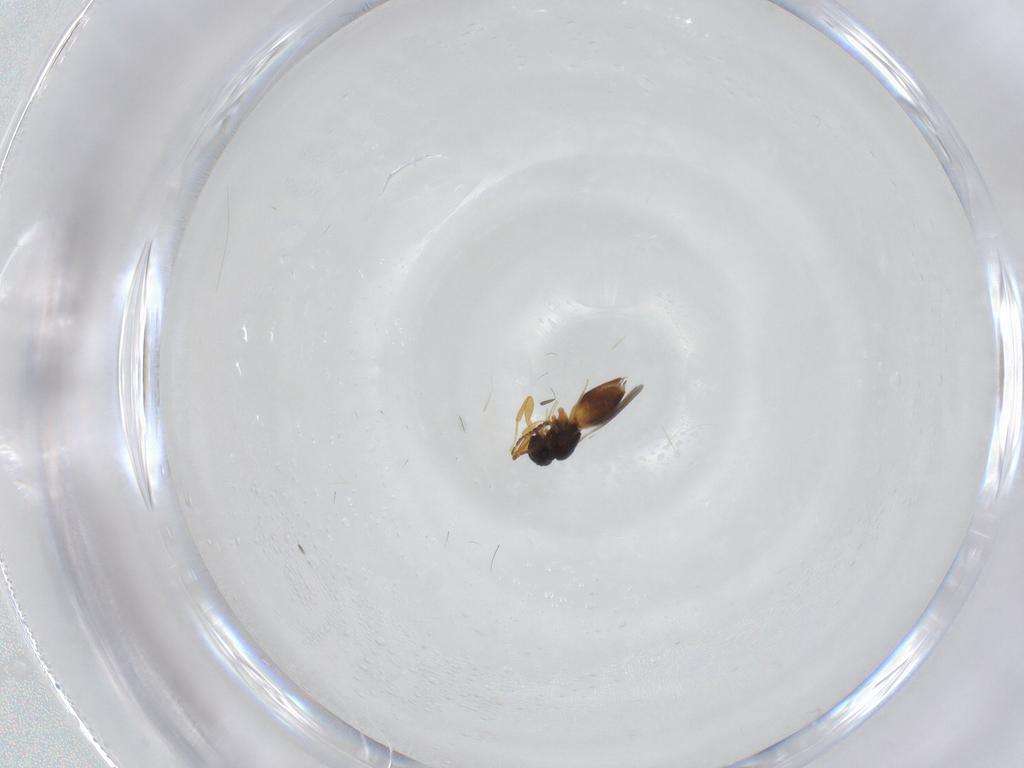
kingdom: Animalia
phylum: Arthropoda
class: Insecta
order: Hymenoptera
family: Ceraphronidae
